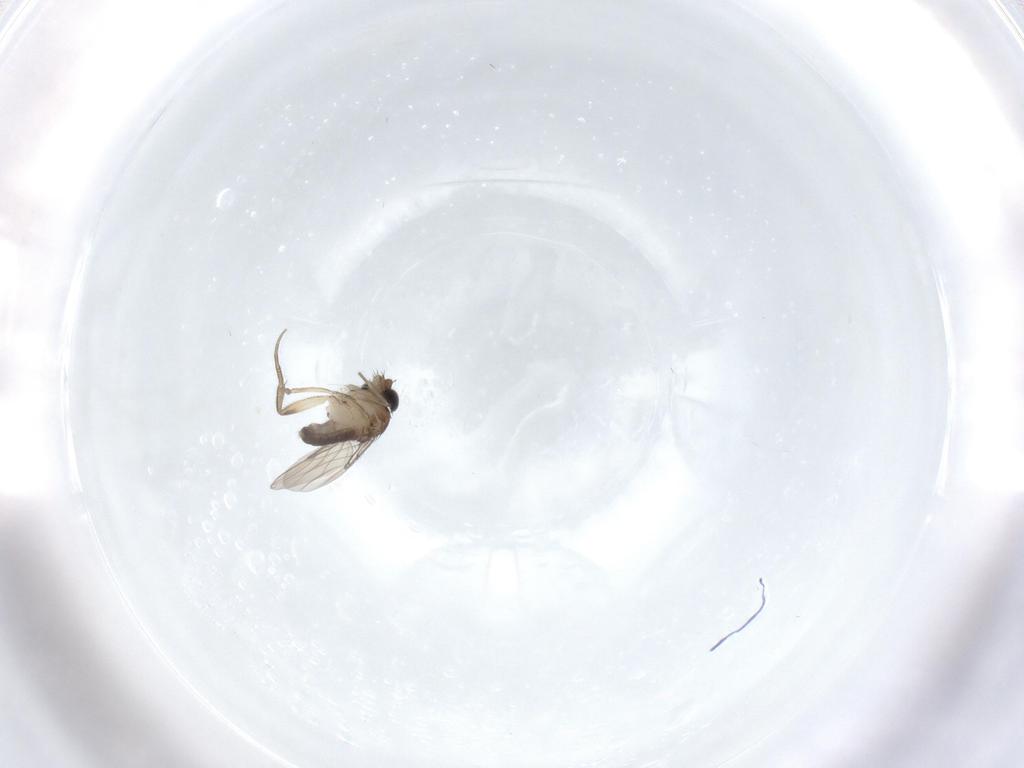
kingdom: Animalia
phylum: Arthropoda
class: Insecta
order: Diptera
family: Phoridae
